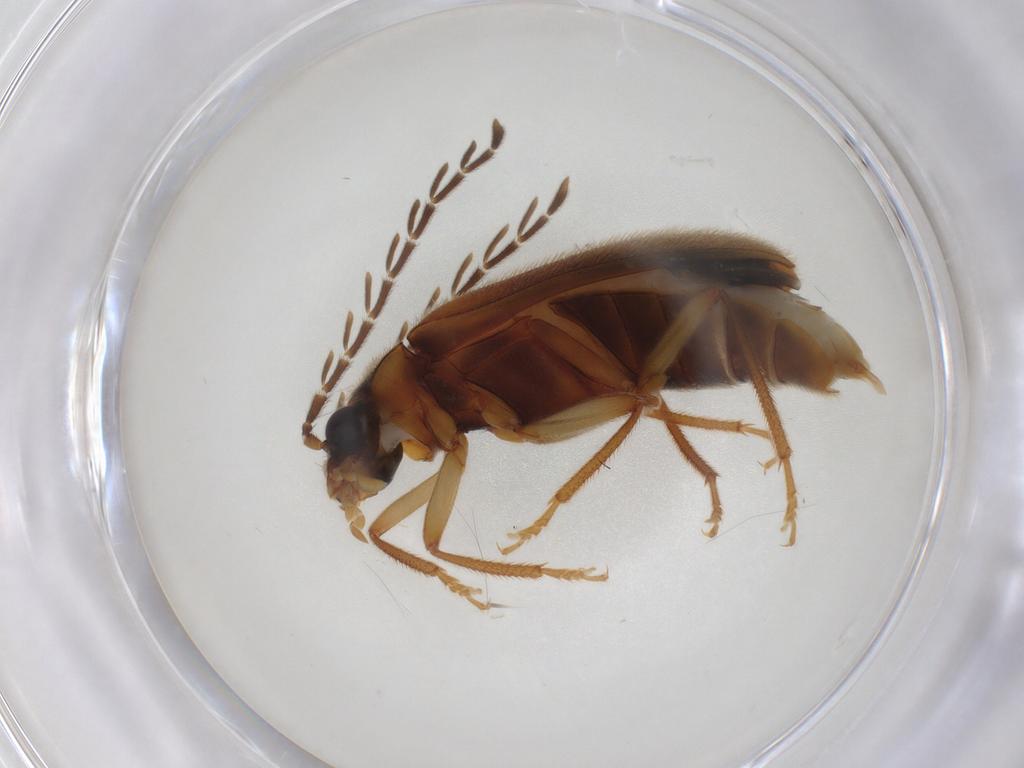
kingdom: Animalia
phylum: Arthropoda
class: Insecta
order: Coleoptera
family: Ptilodactylidae
